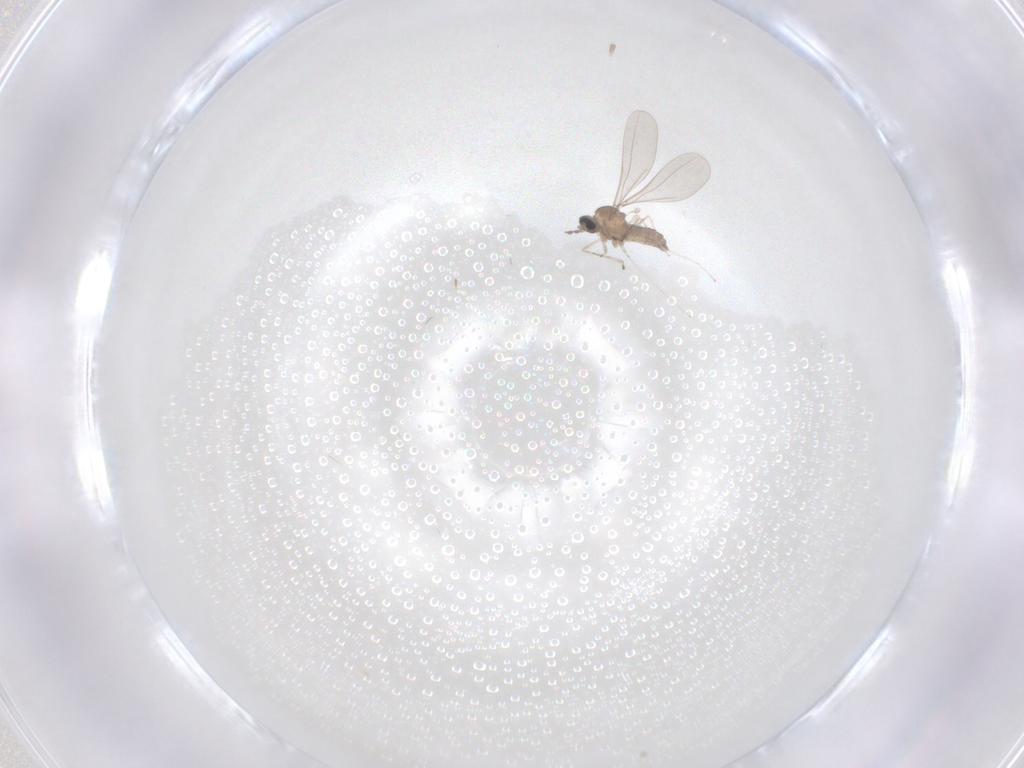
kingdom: Animalia
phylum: Arthropoda
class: Insecta
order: Diptera
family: Cecidomyiidae
